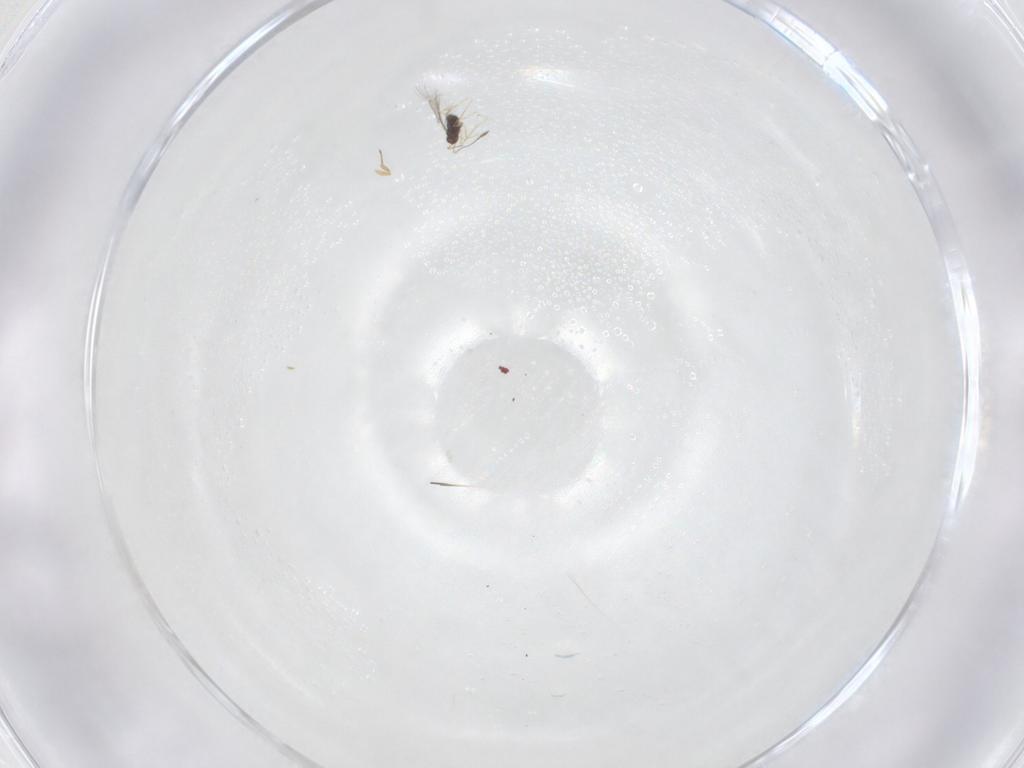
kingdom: Animalia
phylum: Arthropoda
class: Insecta
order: Hymenoptera
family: Aphelinidae
